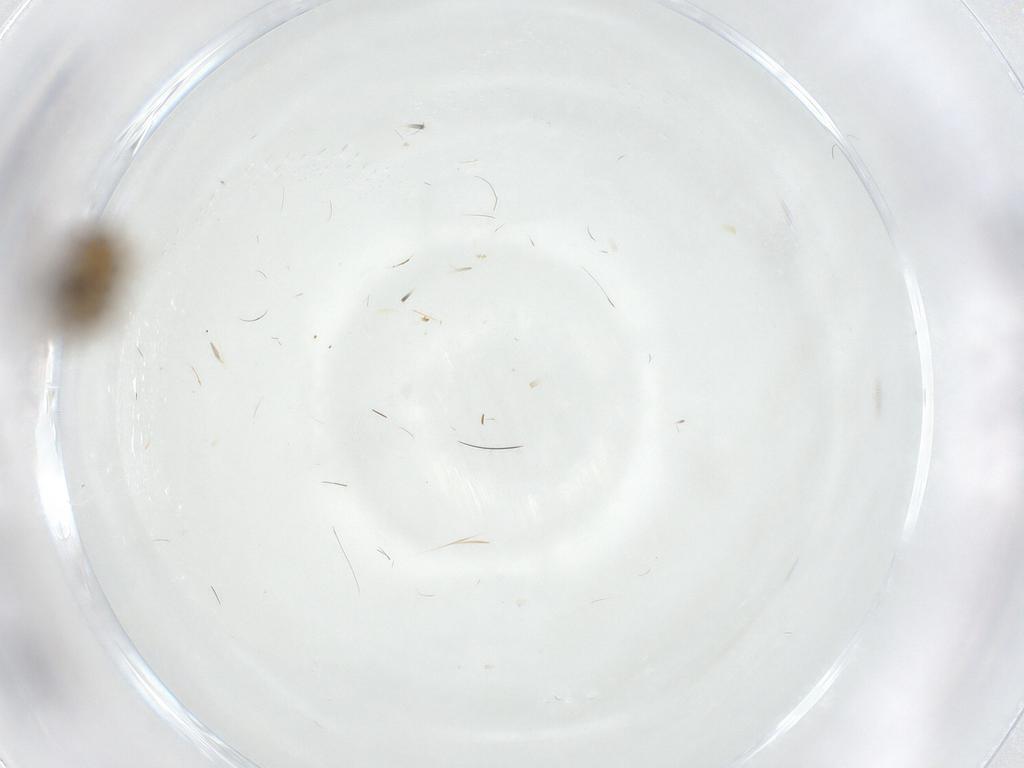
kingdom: Animalia
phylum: Arthropoda
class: Insecta
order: Diptera
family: Sciaridae
